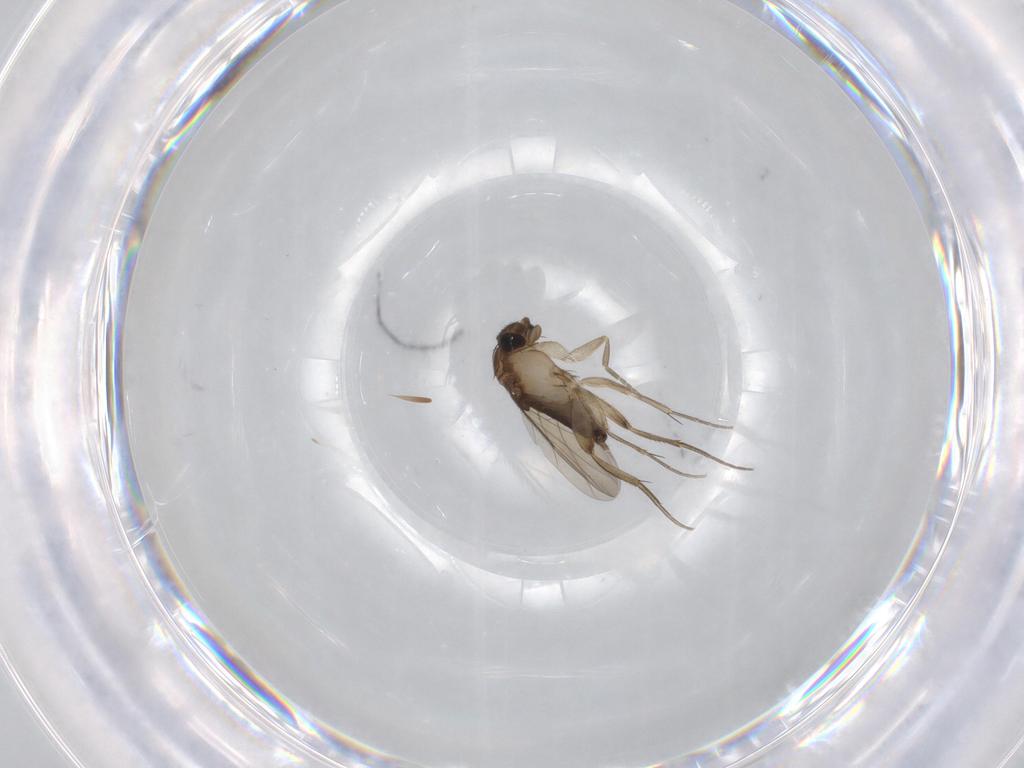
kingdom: Animalia
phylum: Arthropoda
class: Insecta
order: Diptera
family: Phoridae
